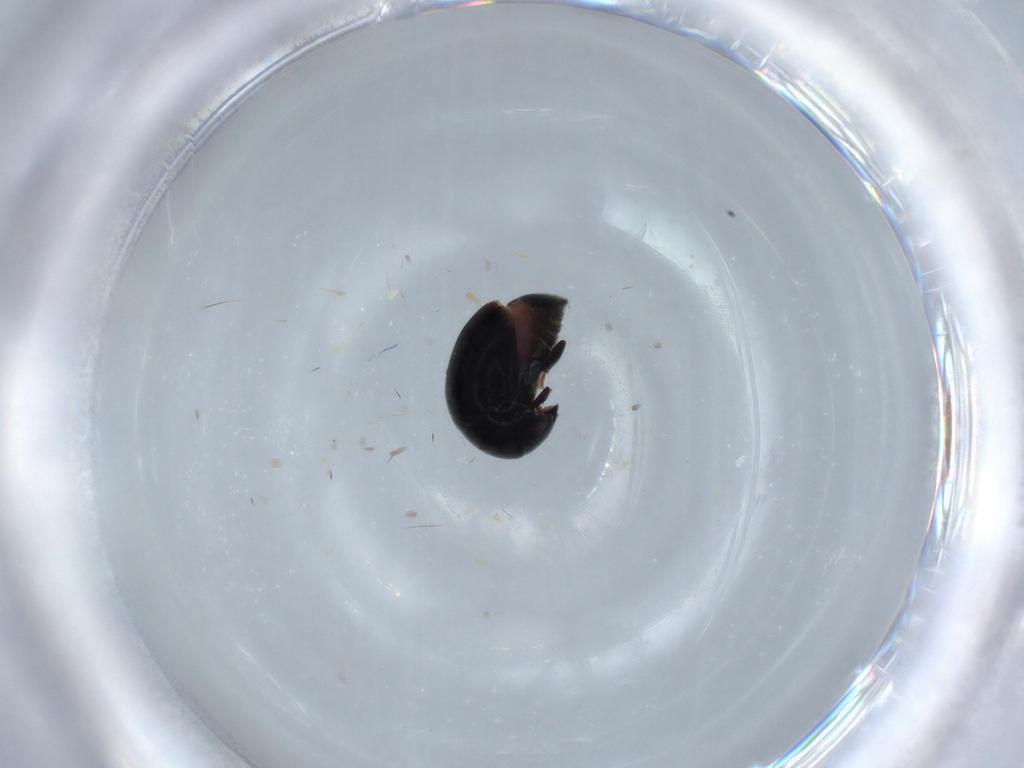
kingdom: Animalia
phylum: Arthropoda
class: Insecta
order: Coleoptera
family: Cybocephalidae
